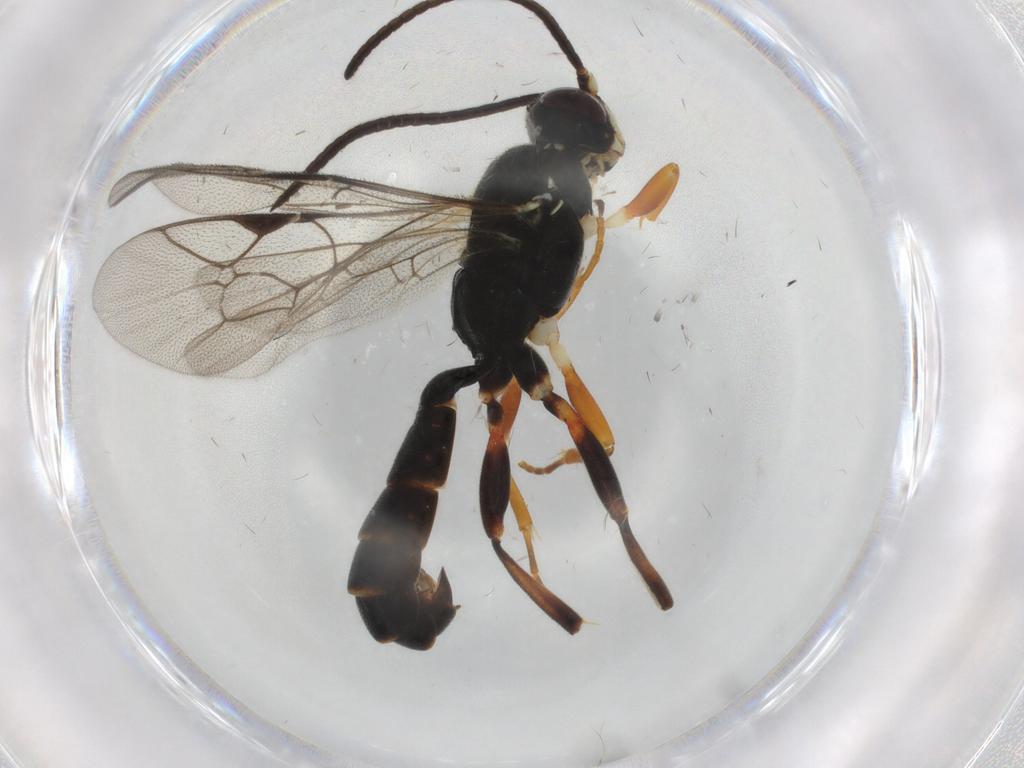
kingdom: Animalia
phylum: Arthropoda
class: Insecta
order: Hymenoptera
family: Ichneumonidae
